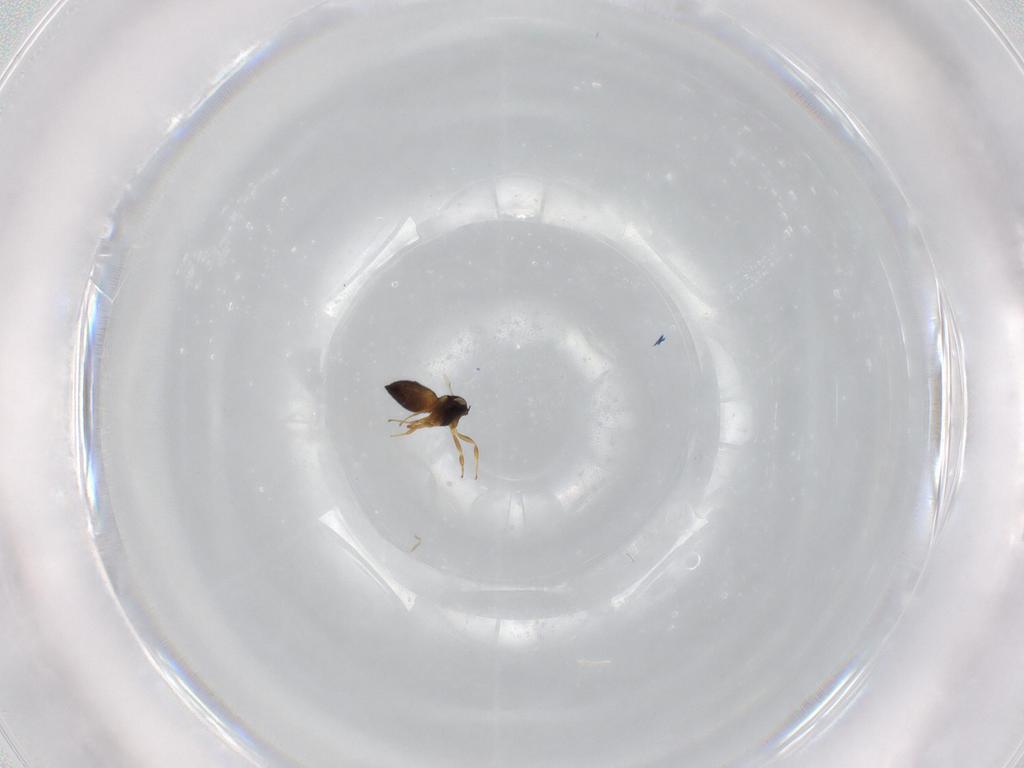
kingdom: Animalia
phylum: Arthropoda
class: Insecta
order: Hymenoptera
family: Scelionidae
